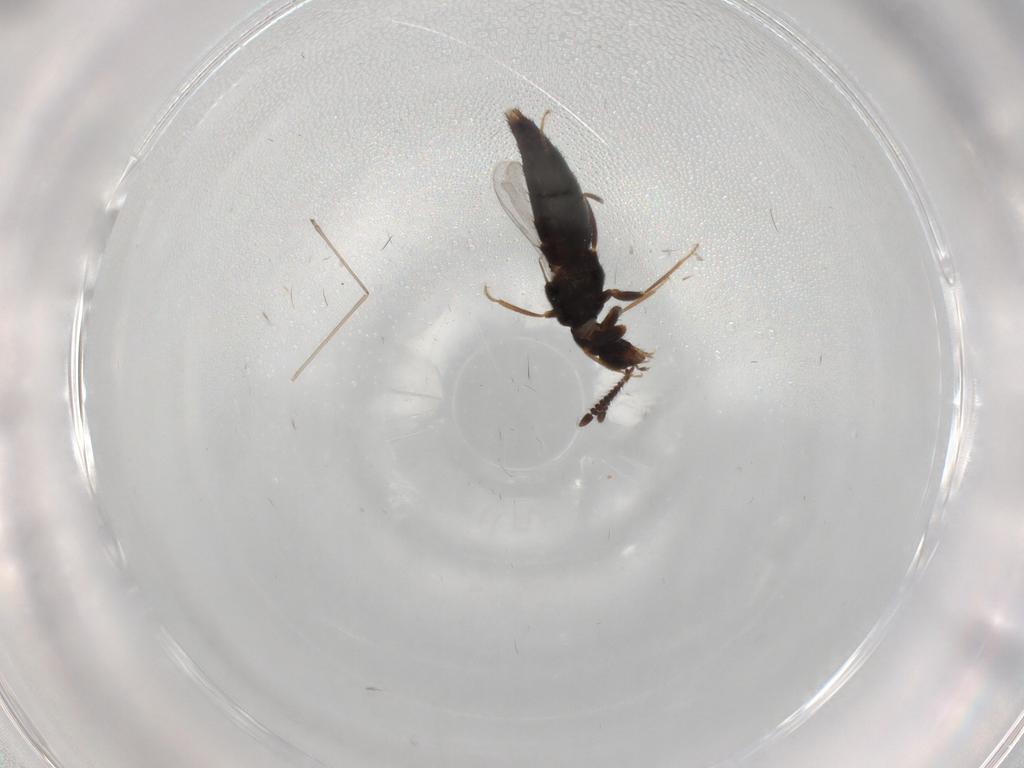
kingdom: Animalia
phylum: Arthropoda
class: Insecta
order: Coleoptera
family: Staphylinidae
